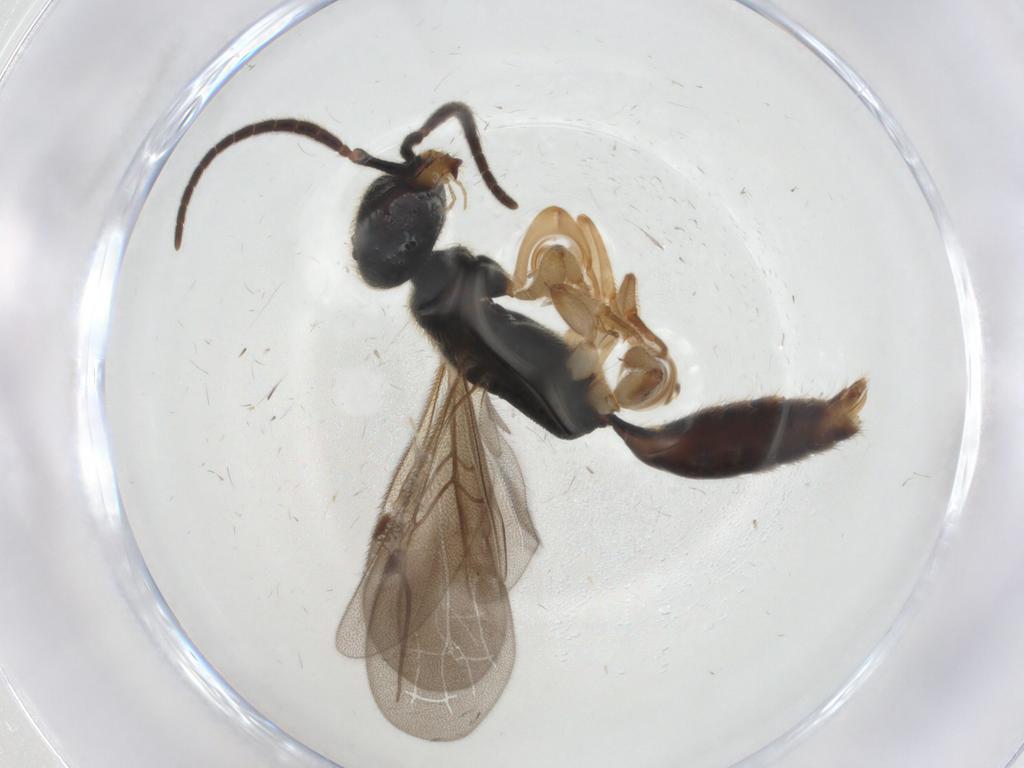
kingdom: Animalia
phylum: Arthropoda
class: Insecta
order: Hymenoptera
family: Bethylidae
